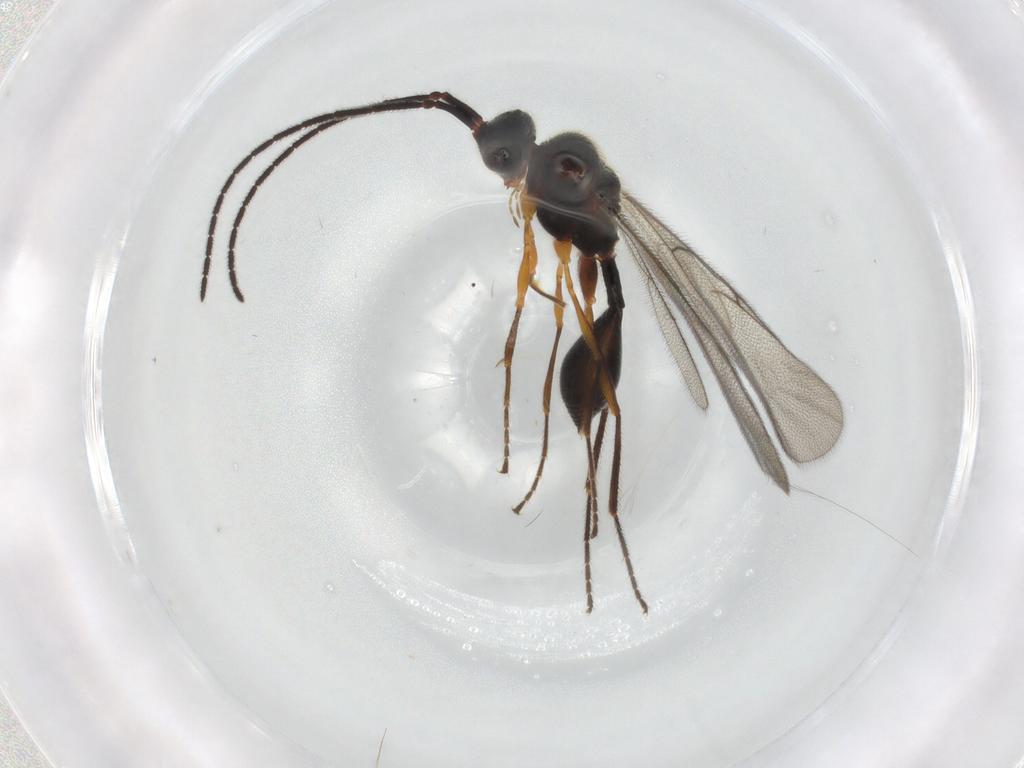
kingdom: Animalia
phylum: Arthropoda
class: Insecta
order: Hymenoptera
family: Diapriidae
